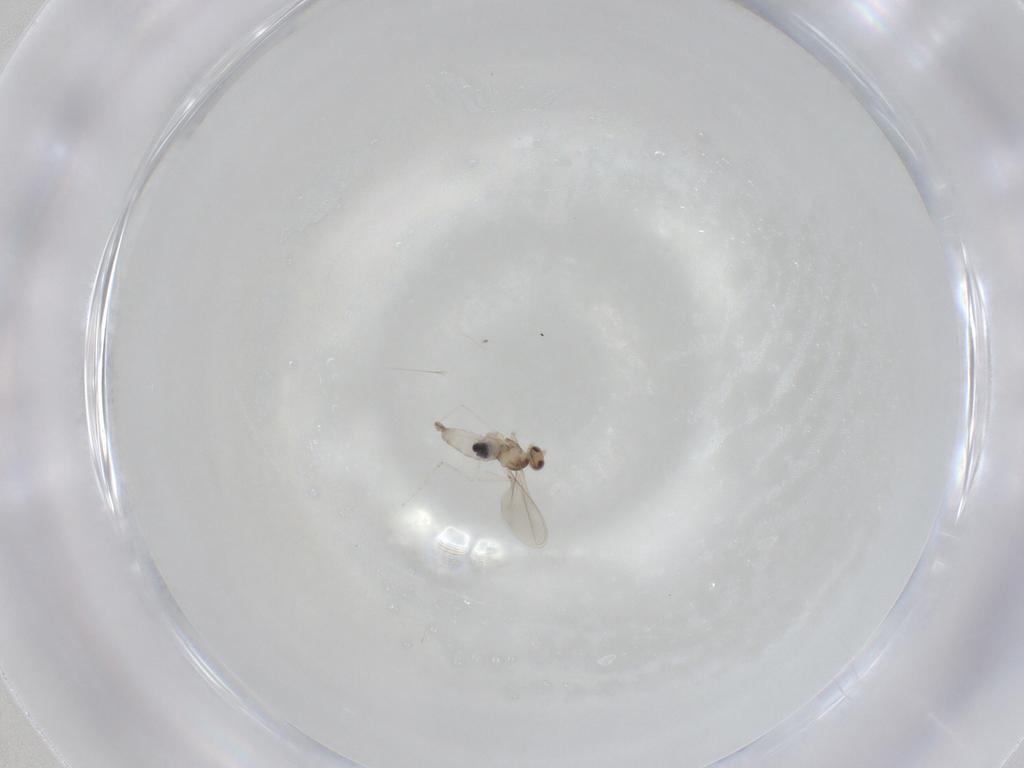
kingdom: Animalia
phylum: Arthropoda
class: Insecta
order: Diptera
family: Cecidomyiidae
